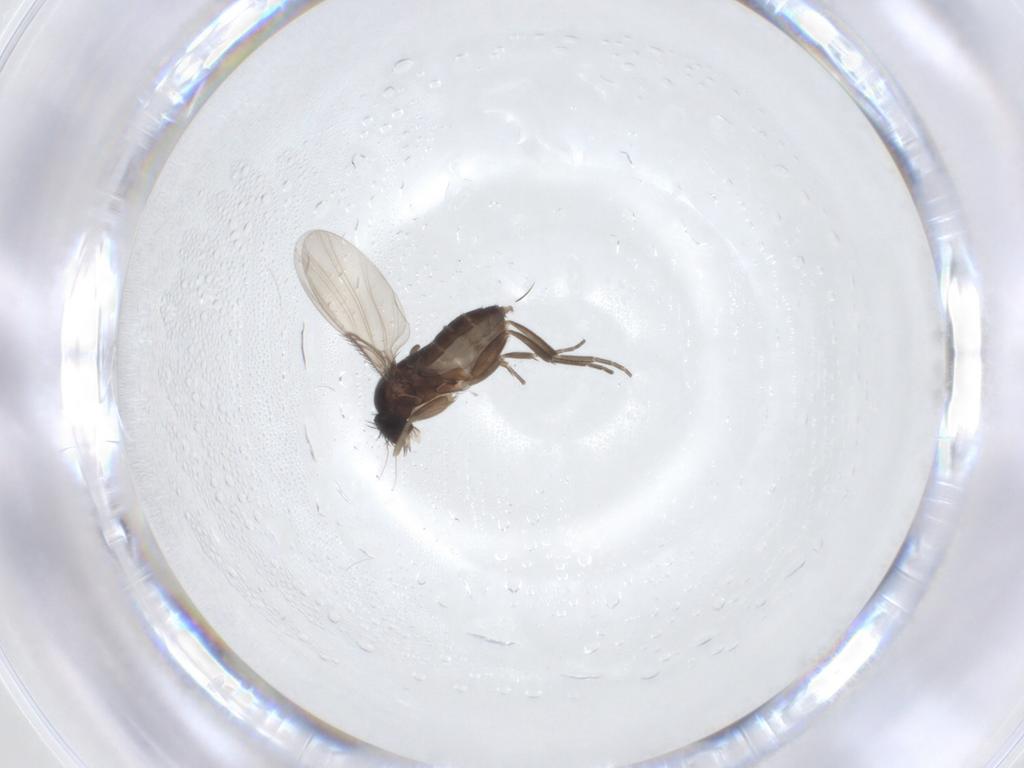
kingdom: Animalia
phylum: Arthropoda
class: Insecta
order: Diptera
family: Phoridae
